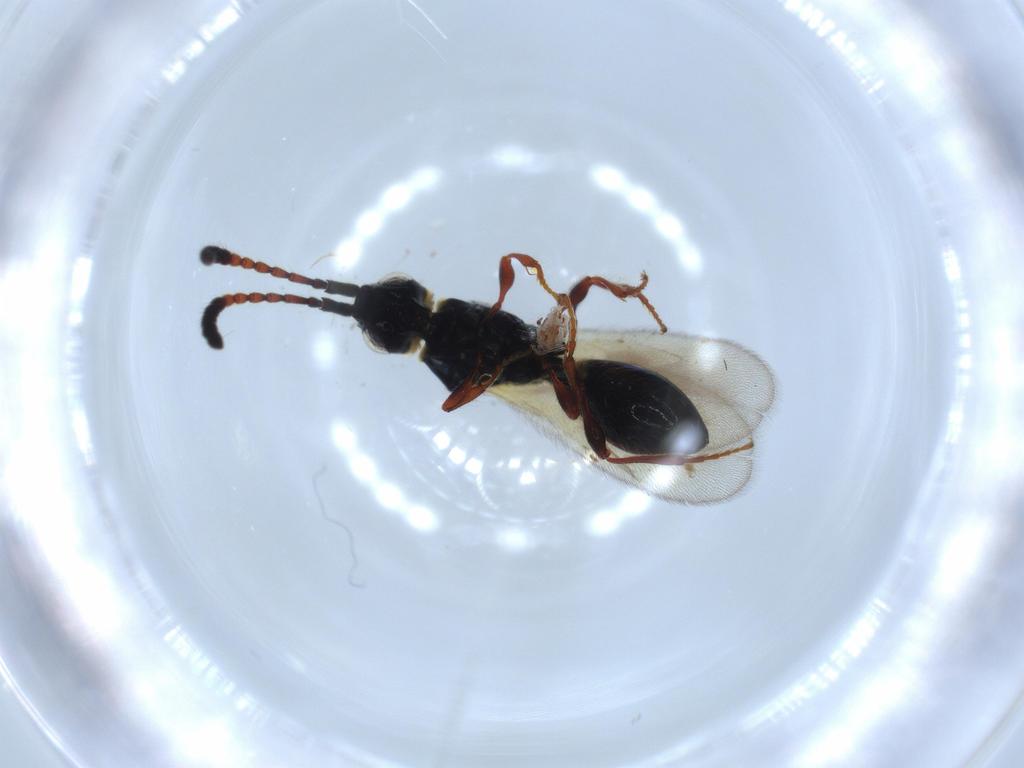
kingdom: Animalia
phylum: Arthropoda
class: Insecta
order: Hymenoptera
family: Diapriidae
